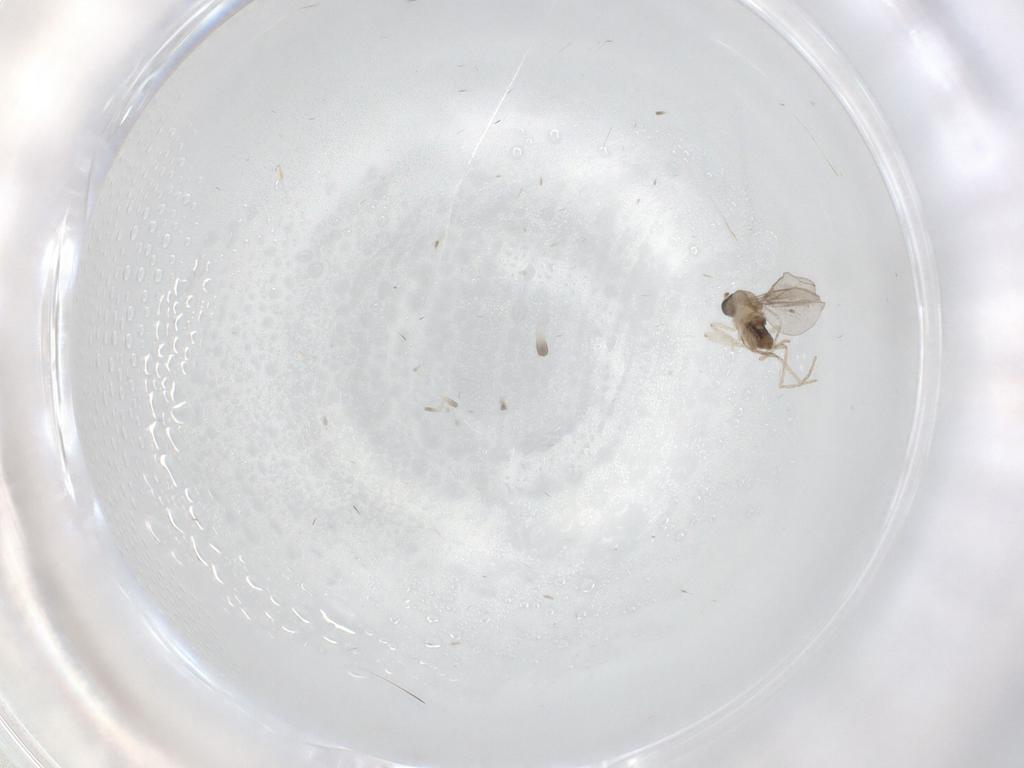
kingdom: Animalia
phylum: Arthropoda
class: Insecta
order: Diptera
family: Cecidomyiidae
